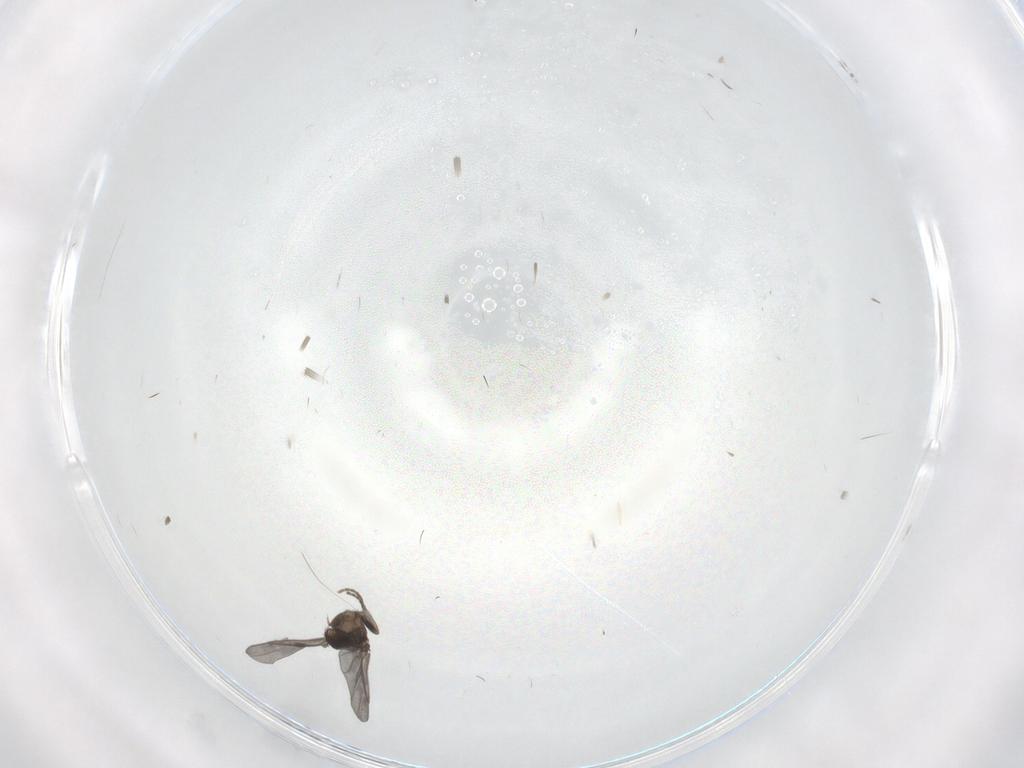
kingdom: Animalia
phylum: Arthropoda
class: Insecta
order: Diptera
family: Phoridae
